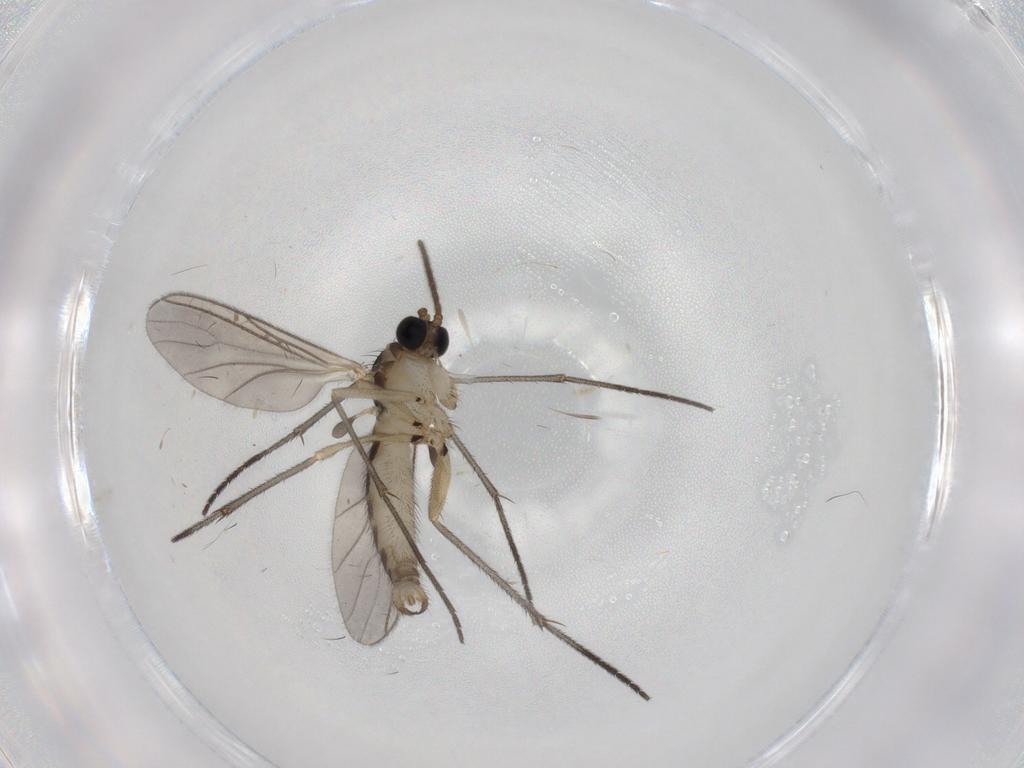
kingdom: Animalia
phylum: Arthropoda
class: Insecta
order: Diptera
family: Sciaridae
